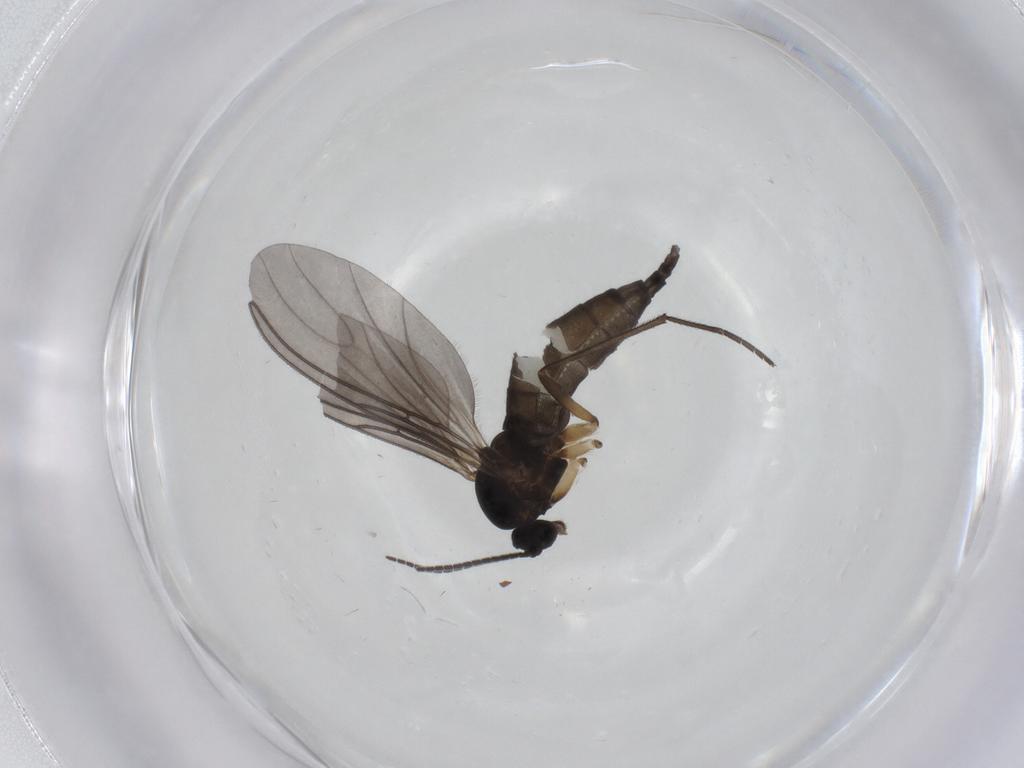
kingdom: Animalia
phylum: Arthropoda
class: Insecta
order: Diptera
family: Sciaridae
